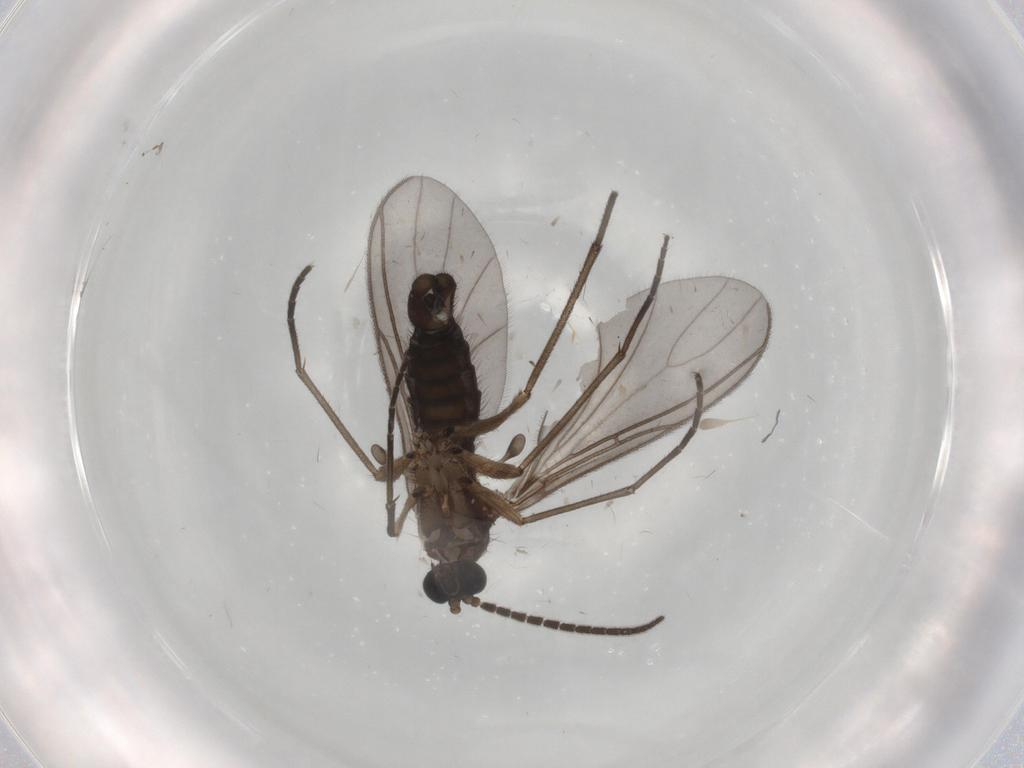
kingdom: Animalia
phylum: Arthropoda
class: Insecta
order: Diptera
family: Sciaridae
